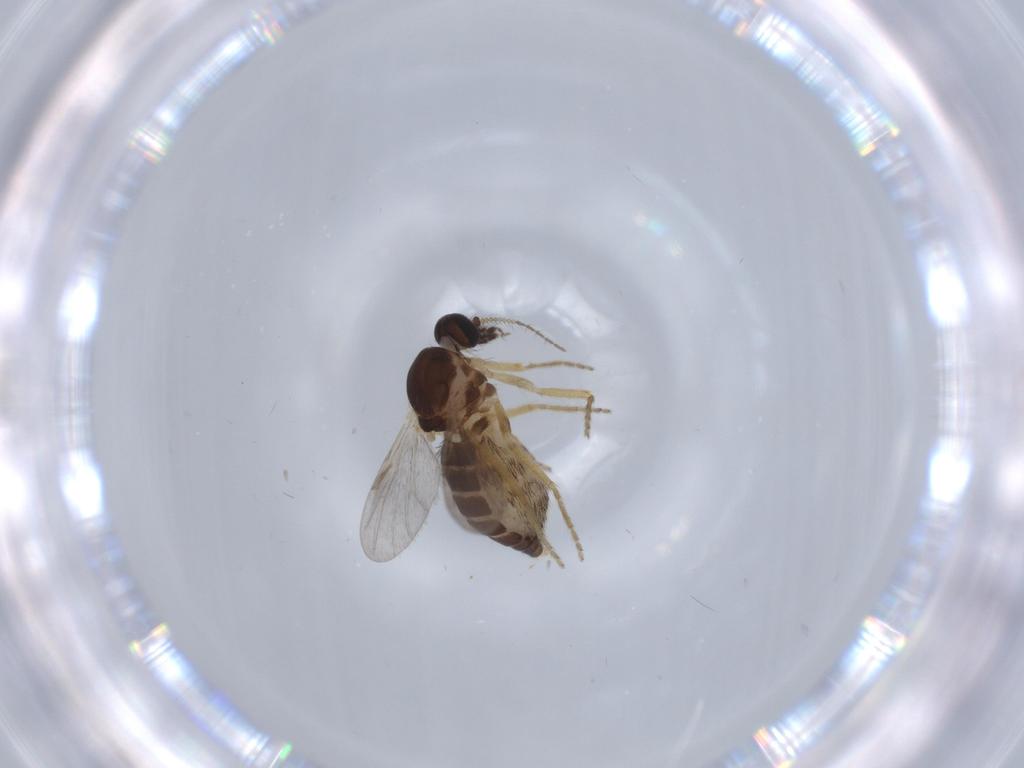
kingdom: Animalia
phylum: Arthropoda
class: Insecta
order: Diptera
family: Ceratopogonidae
